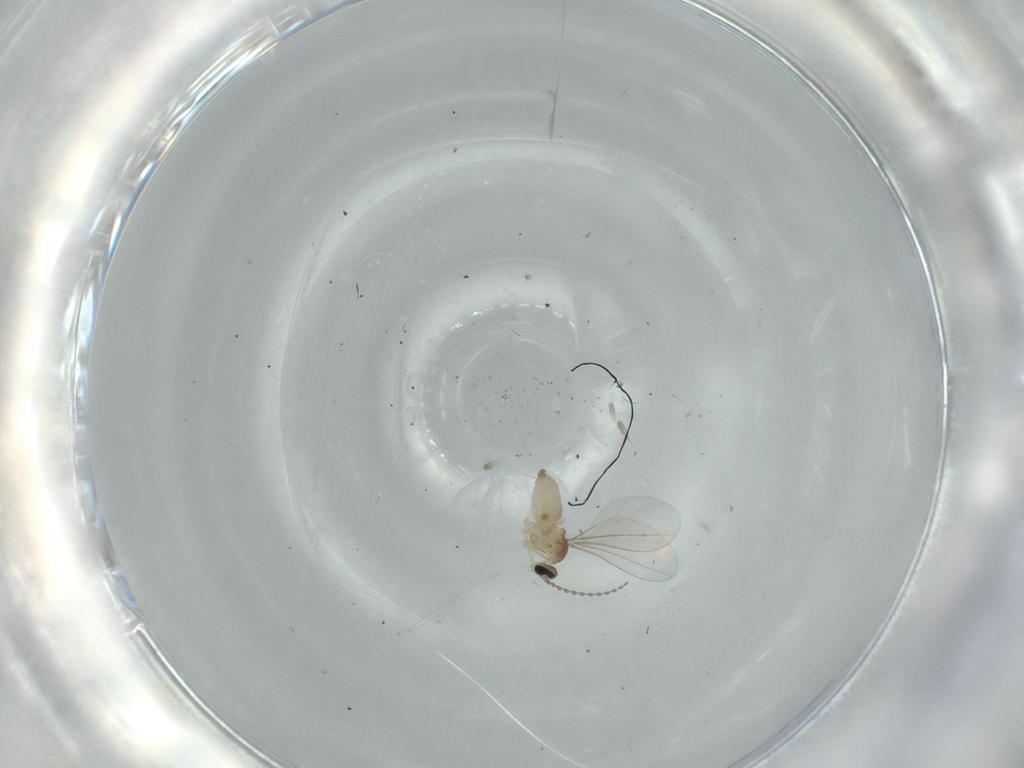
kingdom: Animalia
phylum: Arthropoda
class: Insecta
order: Diptera
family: Cecidomyiidae
